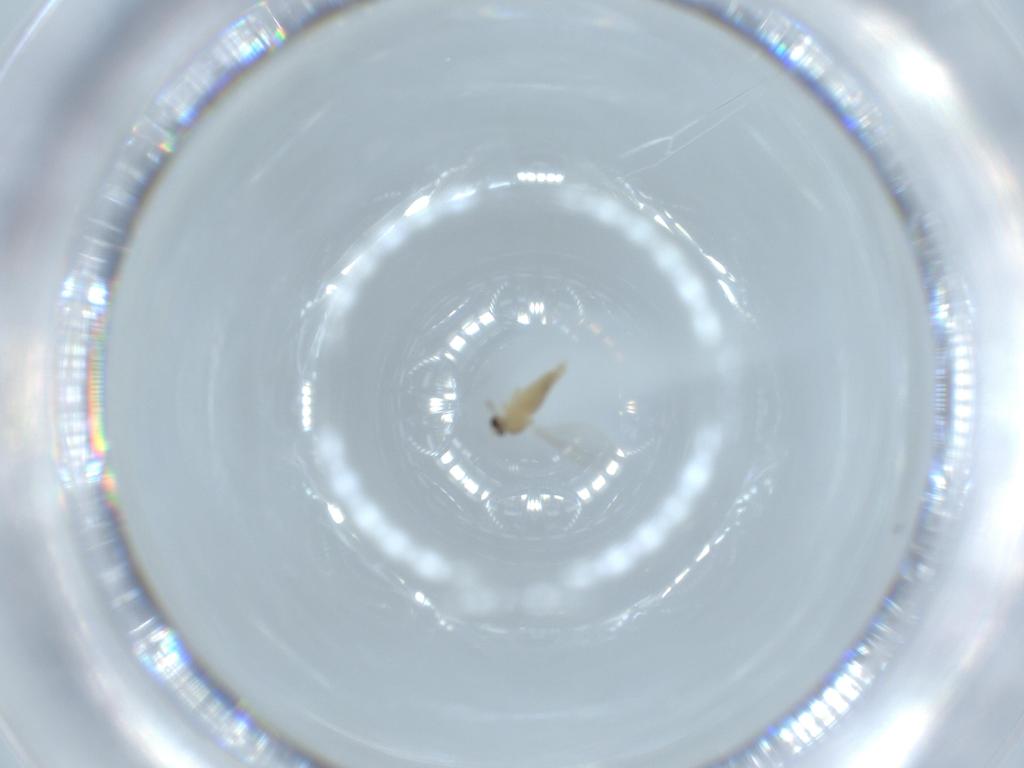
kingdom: Animalia
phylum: Arthropoda
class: Insecta
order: Diptera
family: Cecidomyiidae
